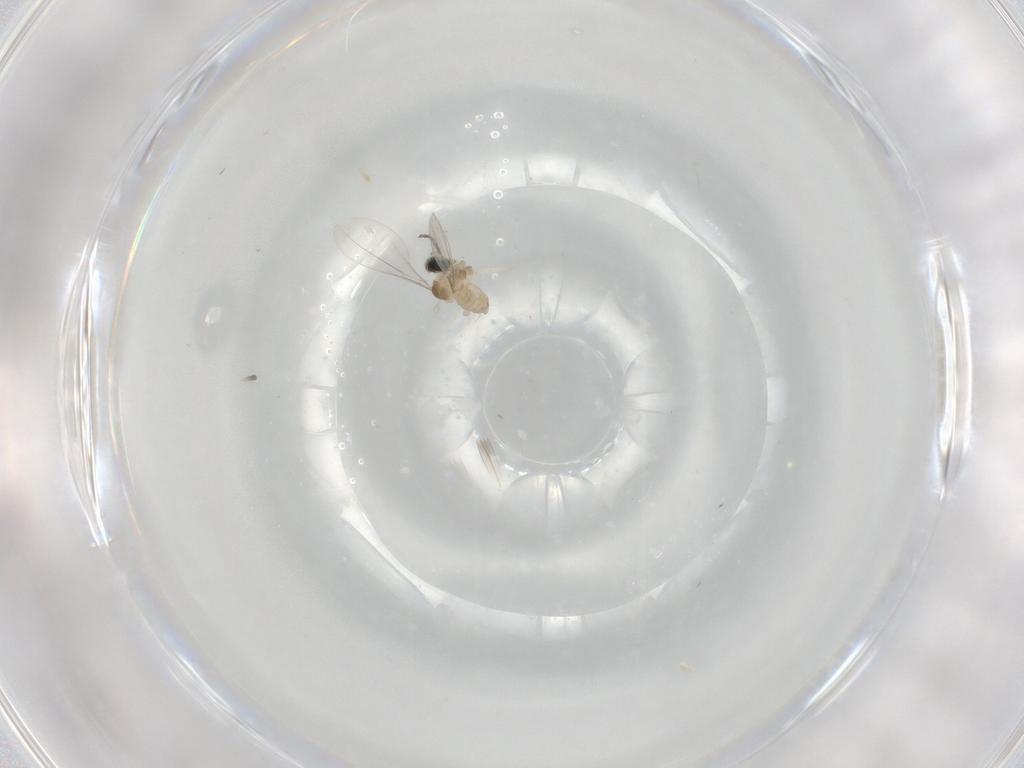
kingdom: Animalia
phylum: Arthropoda
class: Insecta
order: Diptera
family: Cecidomyiidae
